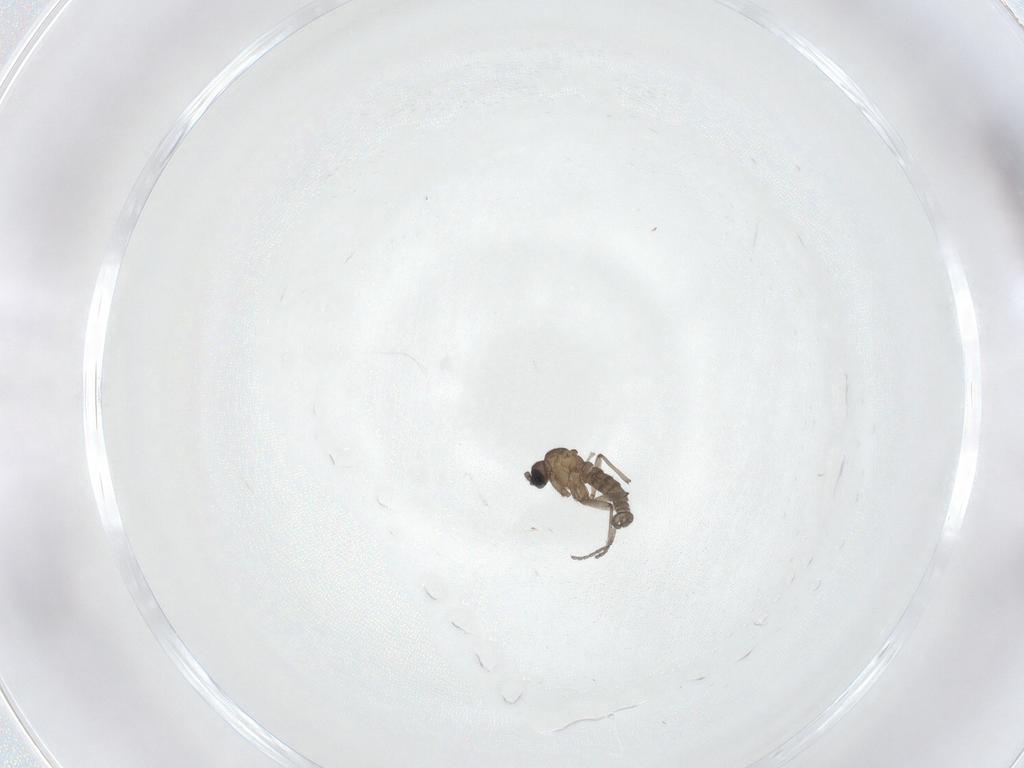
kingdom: Animalia
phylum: Arthropoda
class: Insecta
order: Diptera
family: Sciaridae
